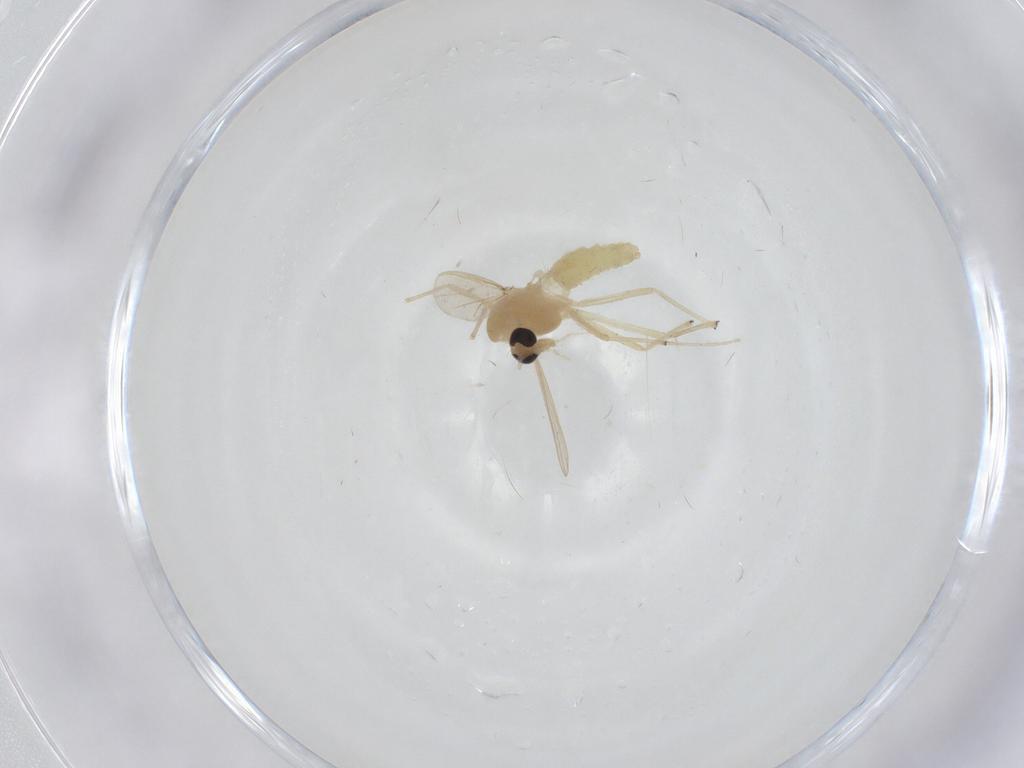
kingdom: Animalia
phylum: Arthropoda
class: Insecta
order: Diptera
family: Chironomidae
